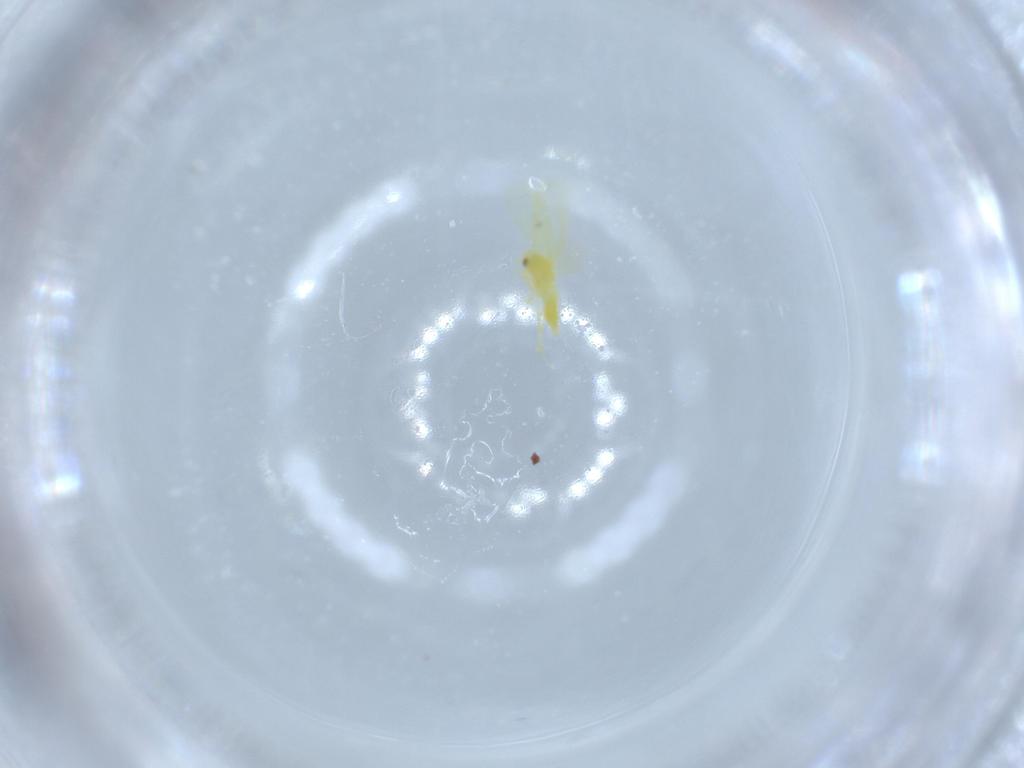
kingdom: Animalia
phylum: Arthropoda
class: Insecta
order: Hemiptera
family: Aleyrodidae
